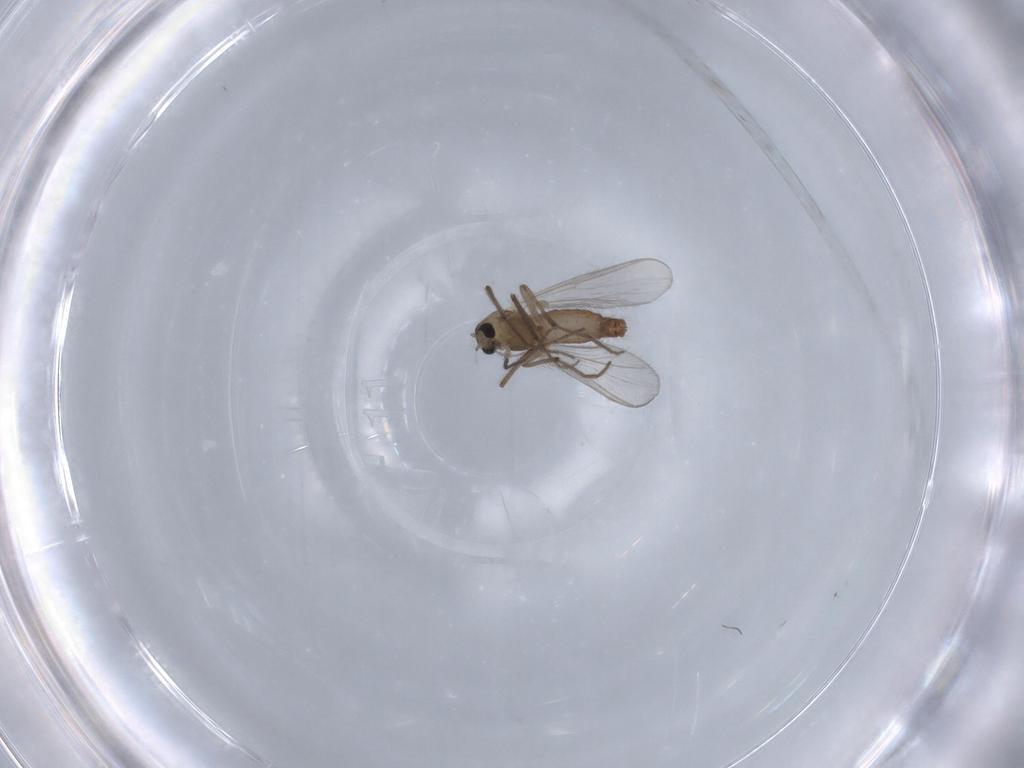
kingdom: Animalia
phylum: Arthropoda
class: Insecta
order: Diptera
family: Chironomidae
